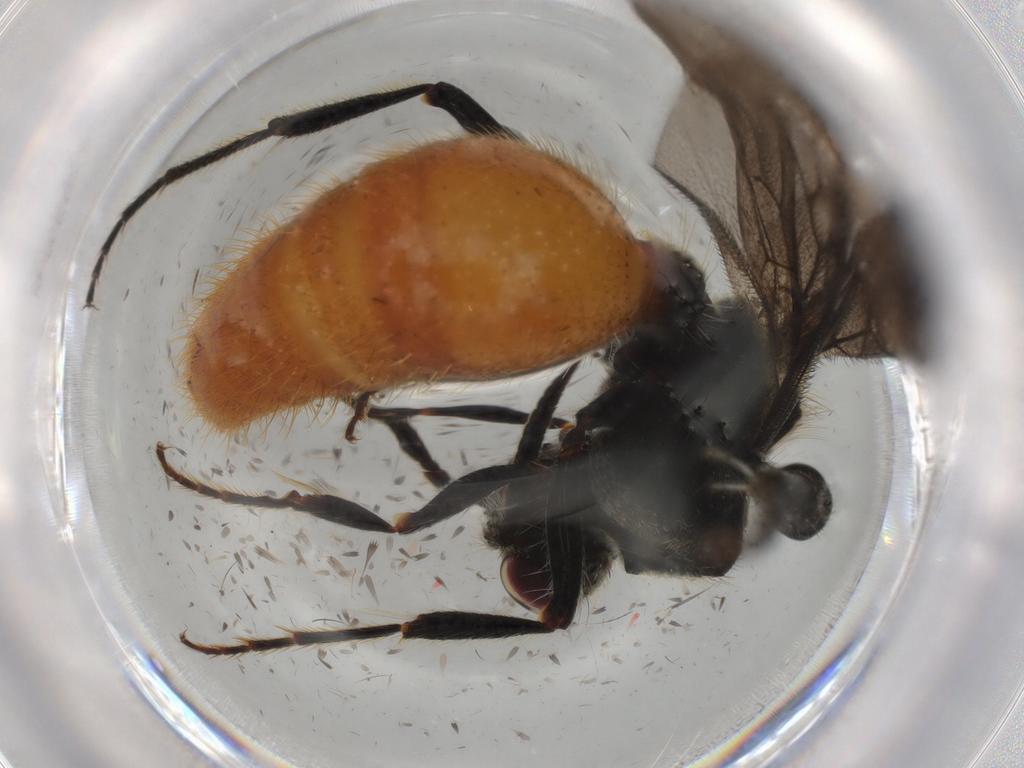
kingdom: Animalia
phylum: Arthropoda
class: Insecta
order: Hymenoptera
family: Mutillidae
